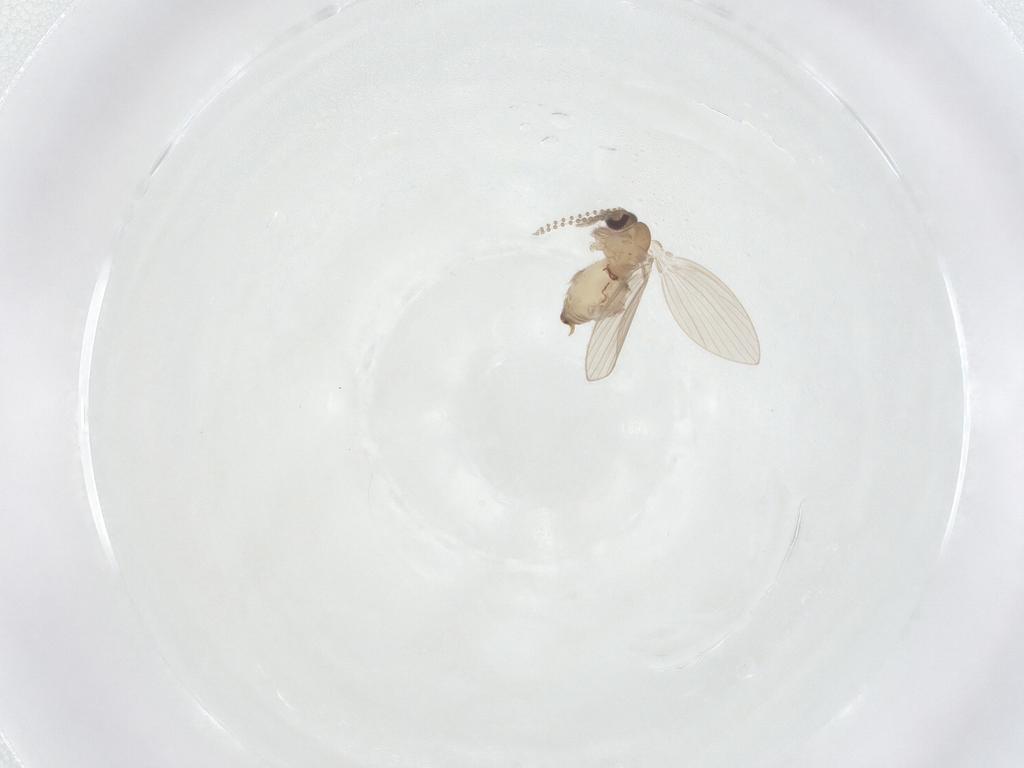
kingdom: Animalia
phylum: Arthropoda
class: Insecta
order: Diptera
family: Psychodidae
